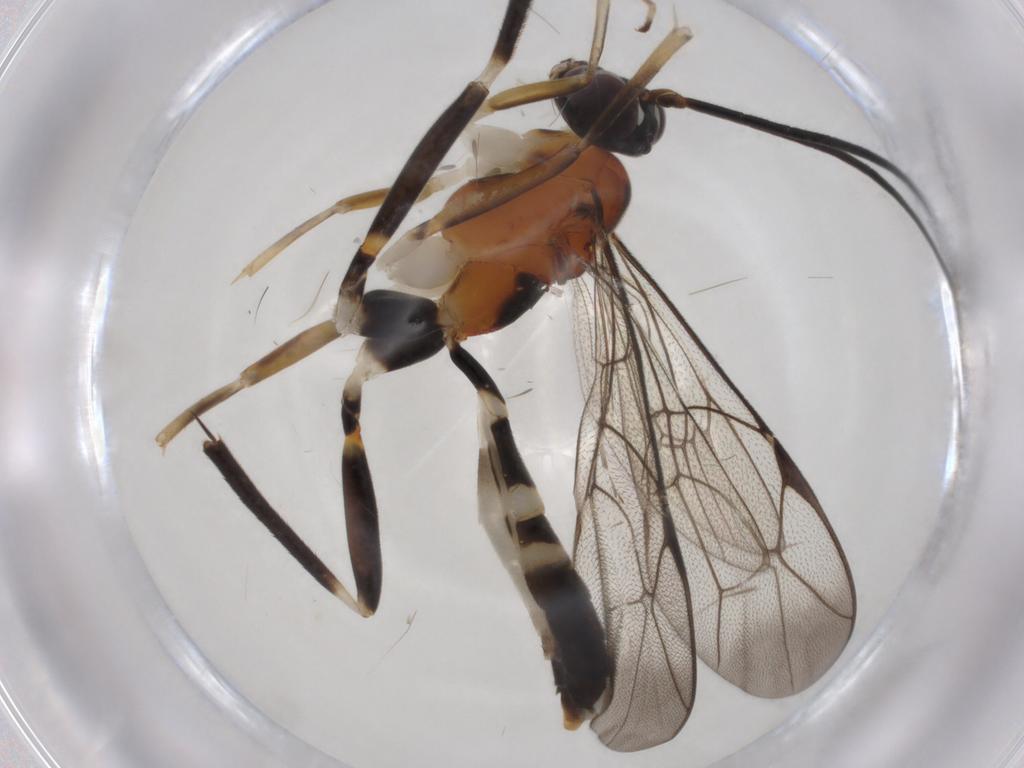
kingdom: Animalia
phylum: Arthropoda
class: Insecta
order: Hymenoptera
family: Ichneumonidae
